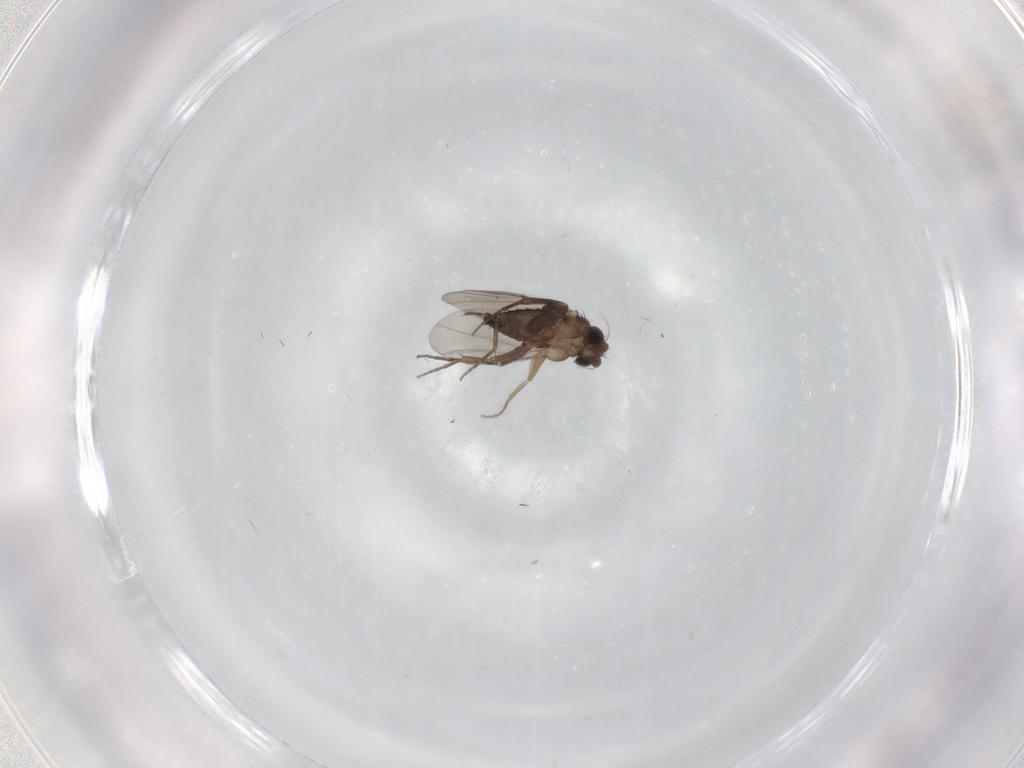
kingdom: Animalia
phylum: Arthropoda
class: Insecta
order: Diptera
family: Phoridae
